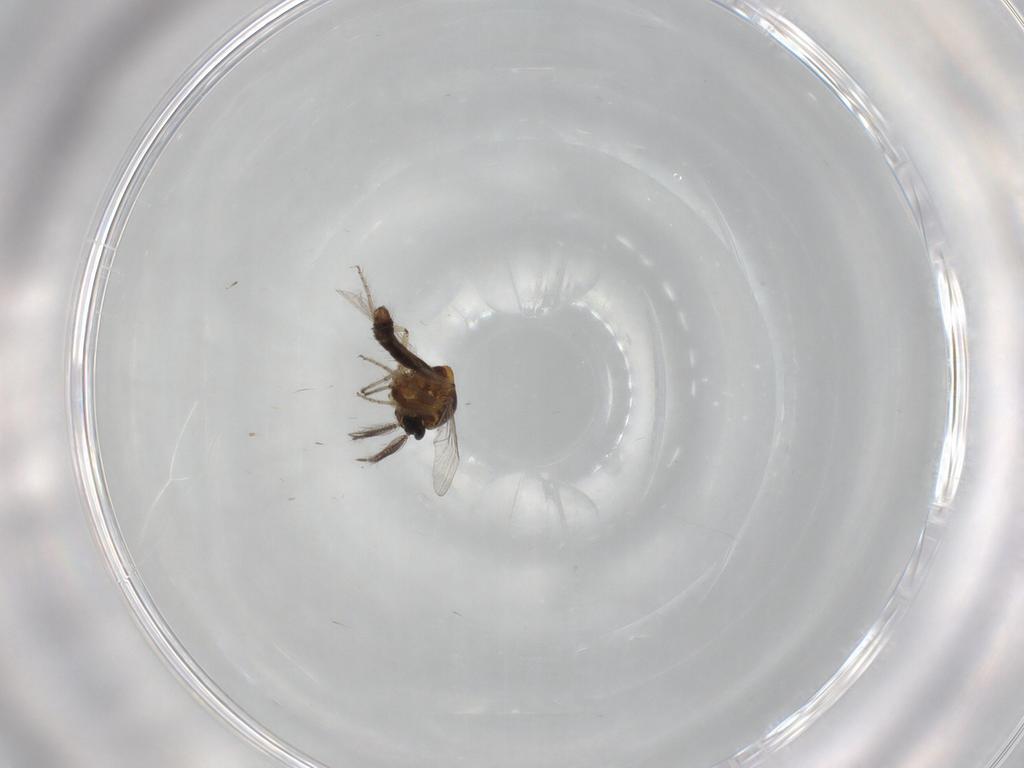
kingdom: Animalia
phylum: Arthropoda
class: Insecta
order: Diptera
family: Ceratopogonidae
